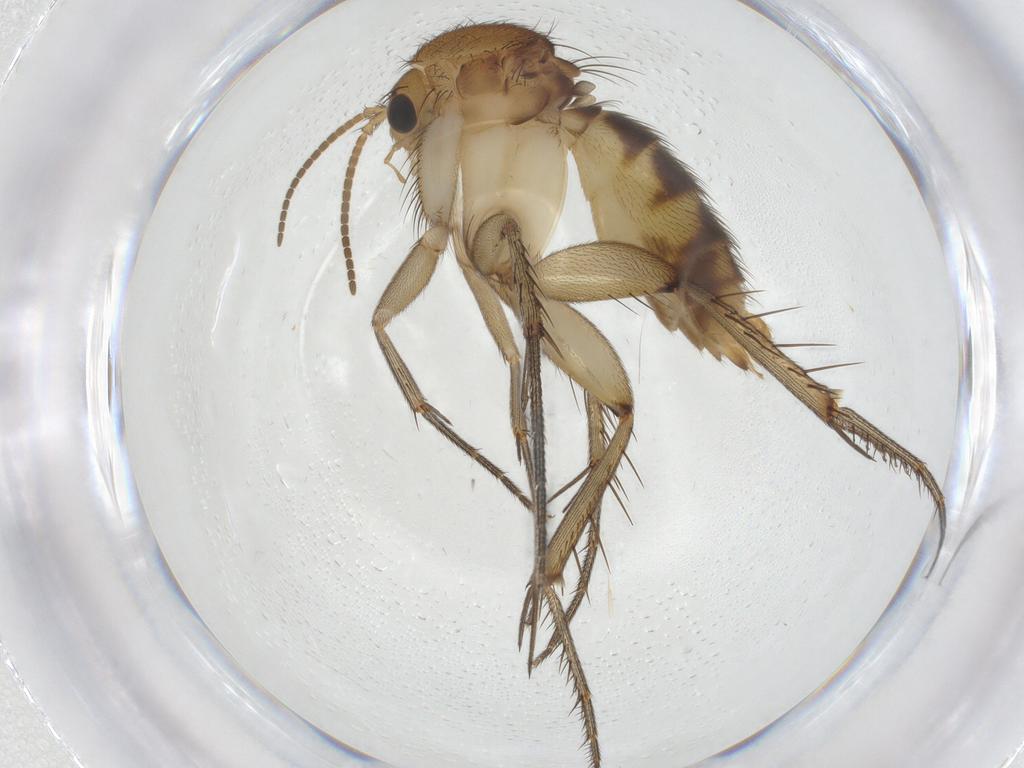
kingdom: Animalia
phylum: Arthropoda
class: Insecta
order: Diptera
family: Mycetophilidae
